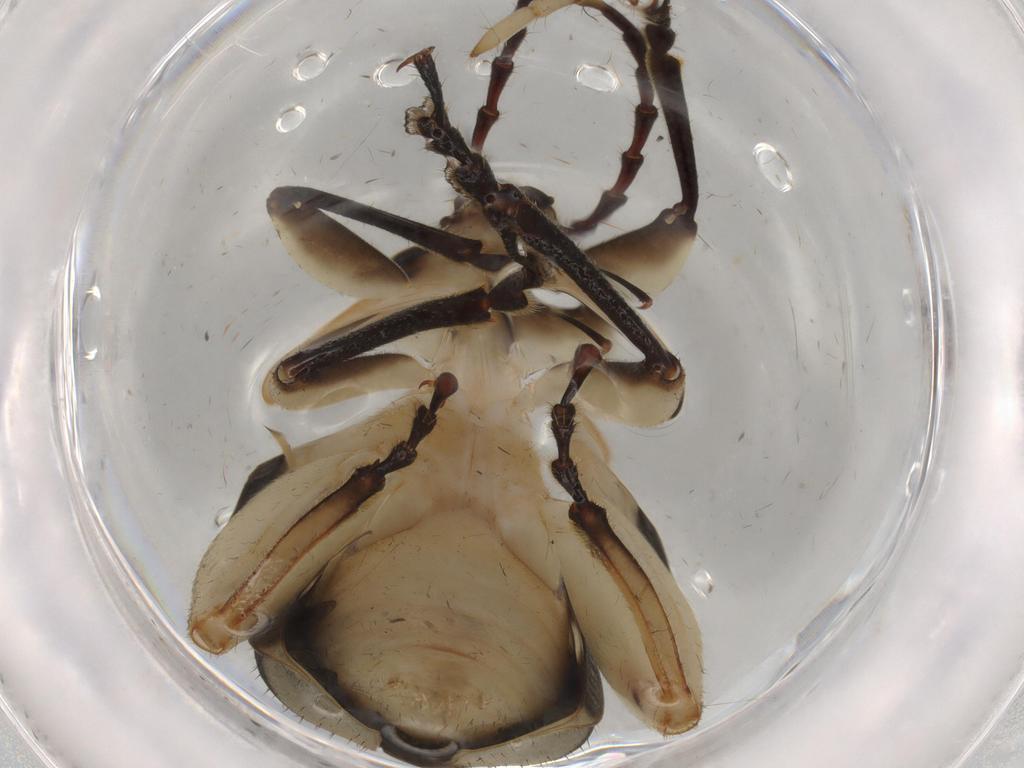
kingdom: Animalia
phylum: Arthropoda
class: Insecta
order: Coleoptera
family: Chrysomelidae
